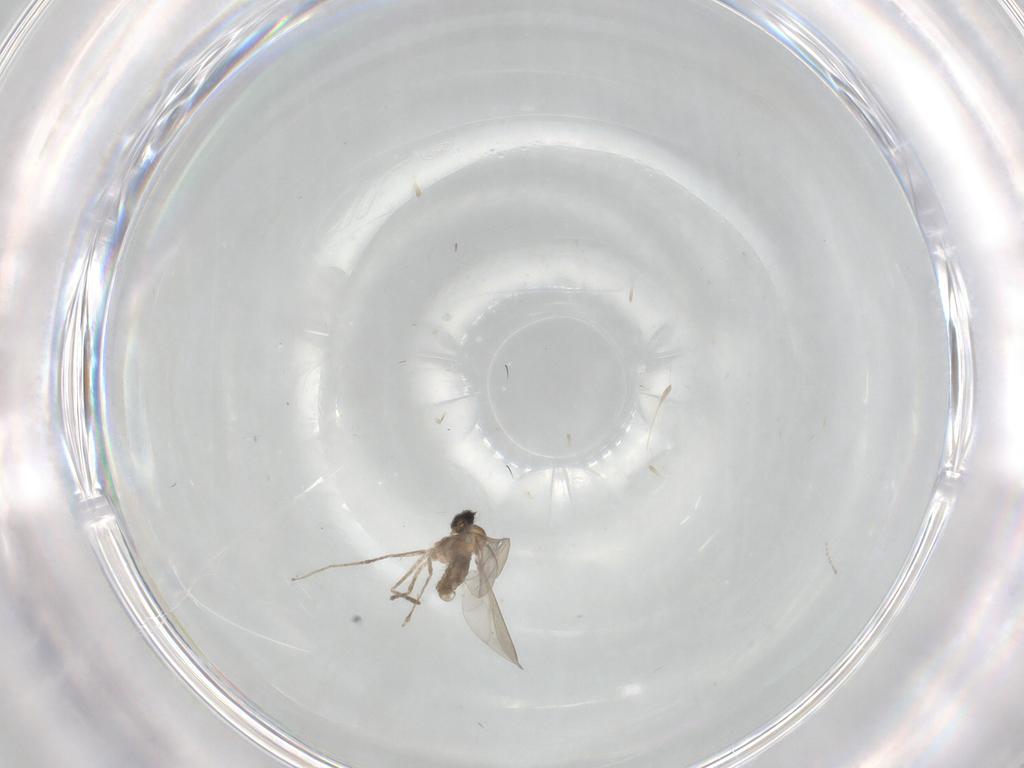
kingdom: Animalia
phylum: Arthropoda
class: Insecta
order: Diptera
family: Cecidomyiidae
